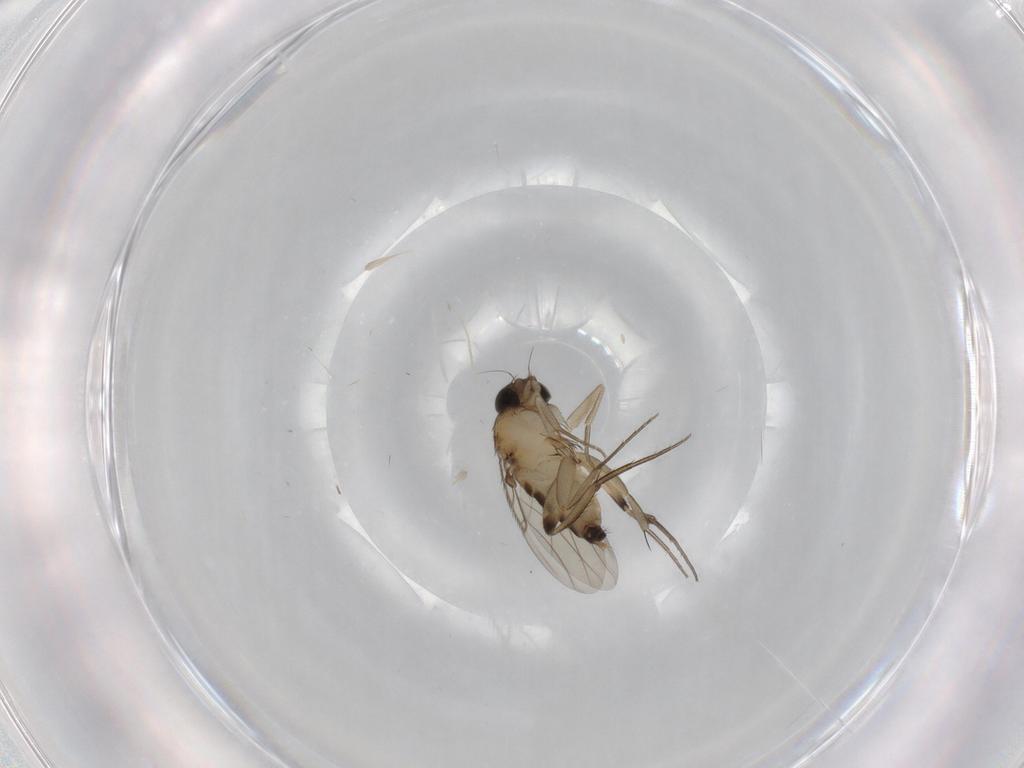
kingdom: Animalia
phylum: Arthropoda
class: Insecta
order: Diptera
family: Phoridae
